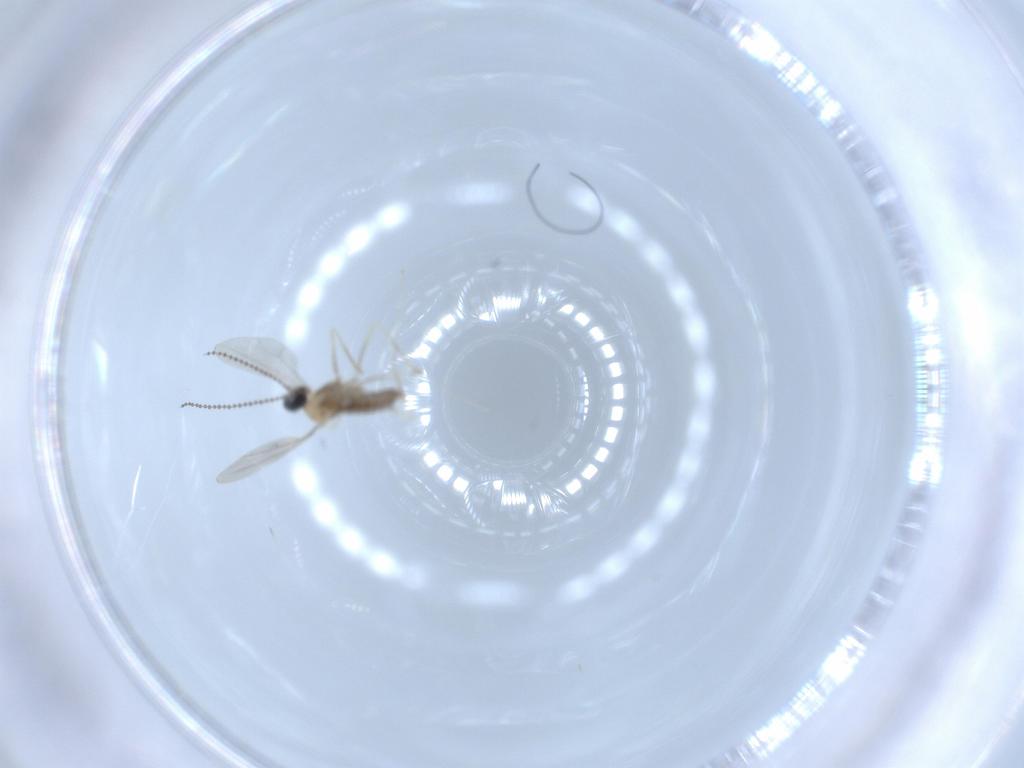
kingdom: Animalia
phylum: Arthropoda
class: Insecta
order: Diptera
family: Cecidomyiidae
